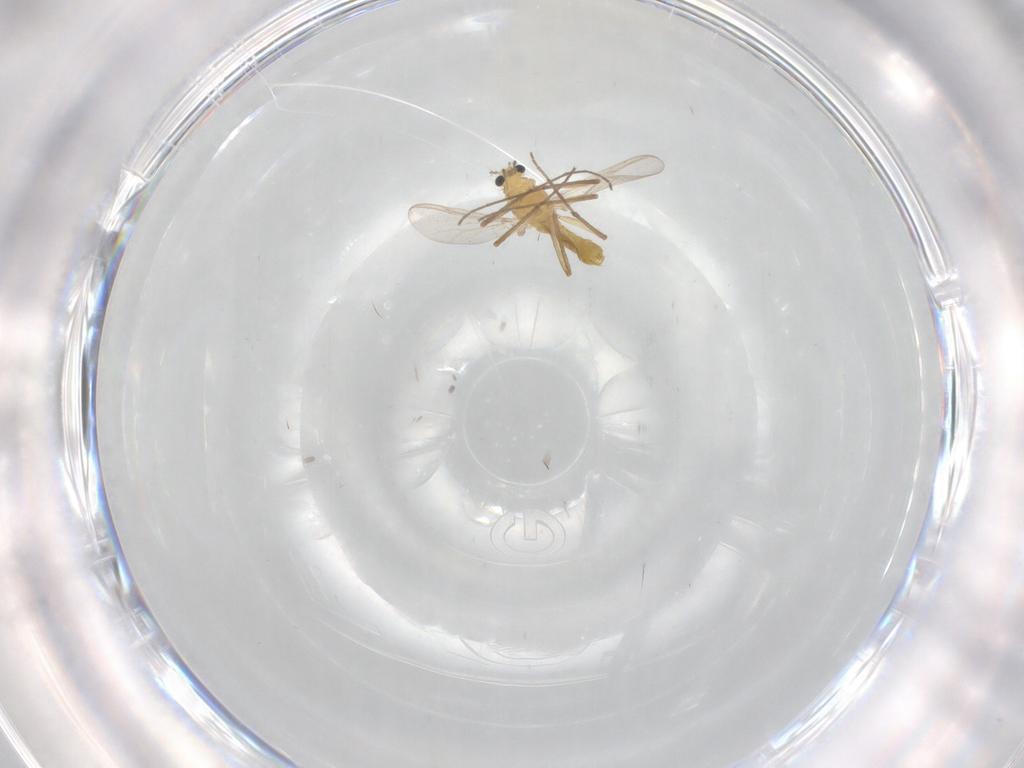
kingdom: Animalia
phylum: Arthropoda
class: Insecta
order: Diptera
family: Chironomidae
